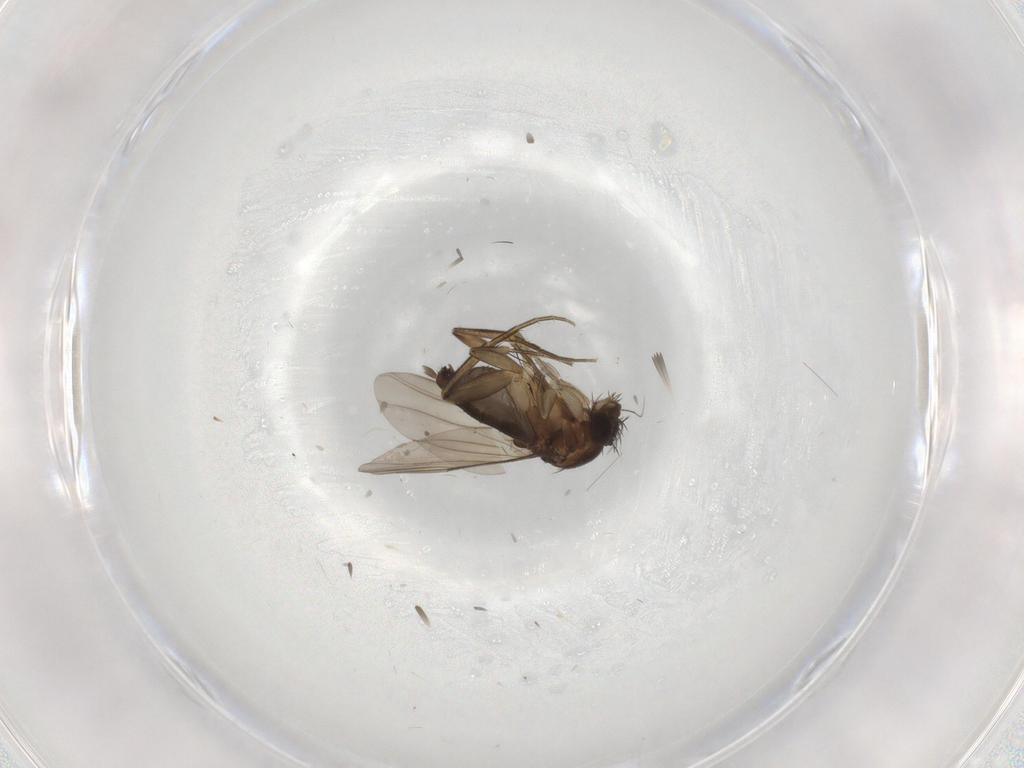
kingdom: Animalia
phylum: Arthropoda
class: Insecta
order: Diptera
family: Phoridae
